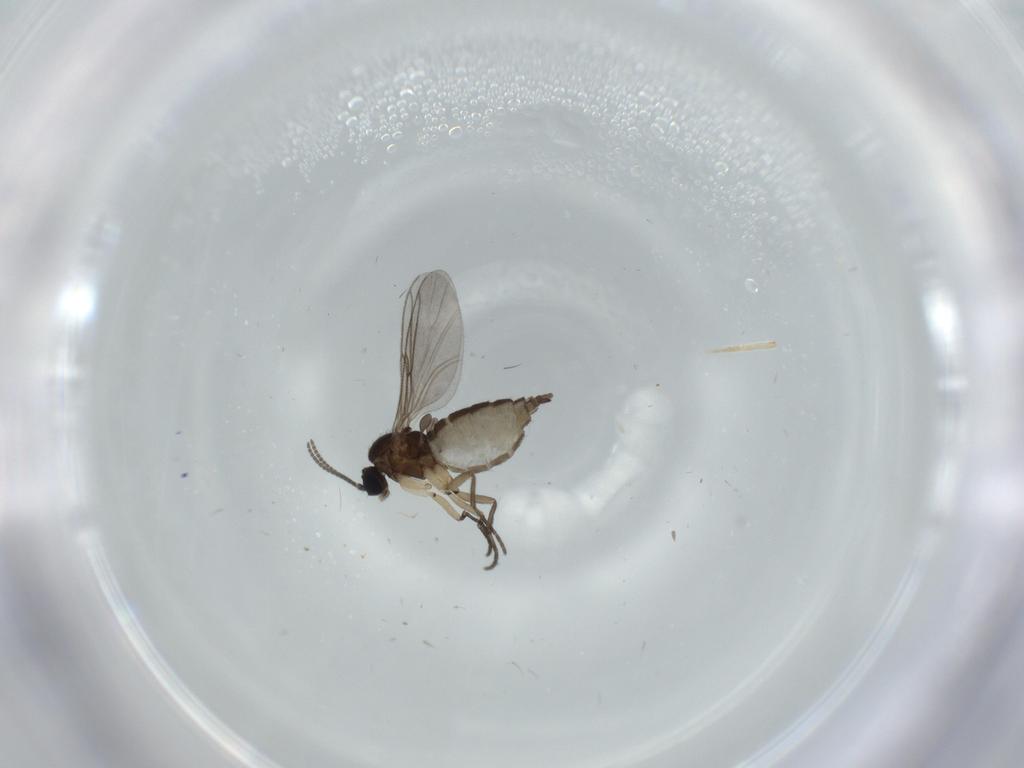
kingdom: Animalia
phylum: Arthropoda
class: Insecta
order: Diptera
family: Sciaridae
